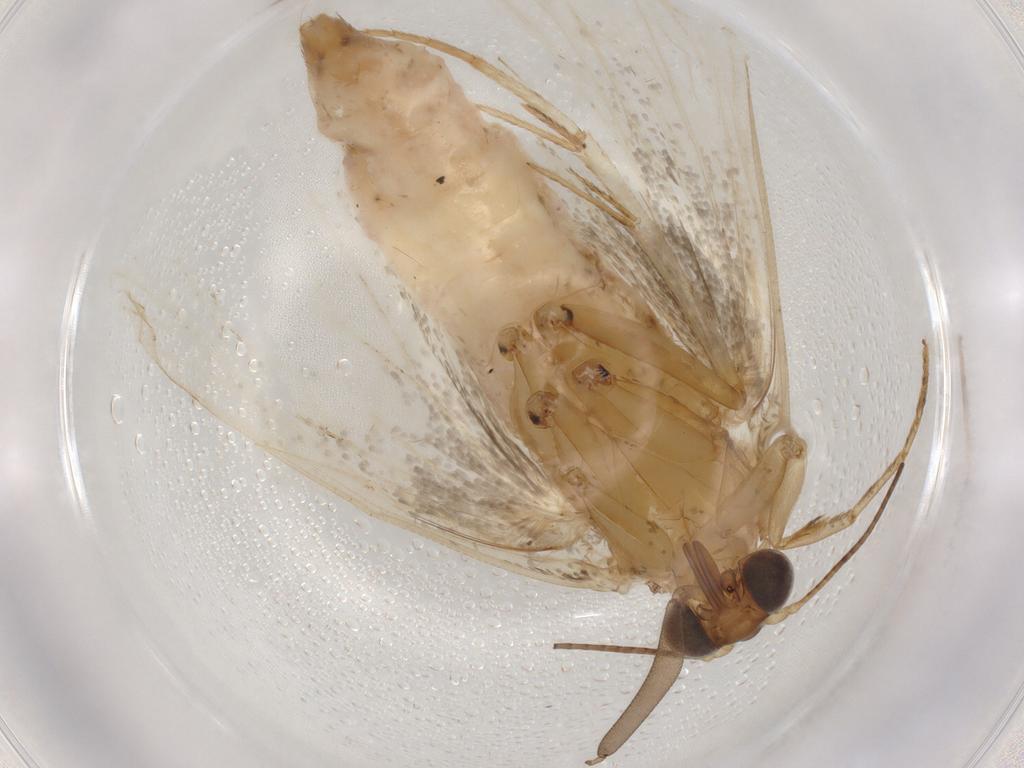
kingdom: Animalia
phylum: Arthropoda
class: Insecta
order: Lepidoptera
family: Erebidae
